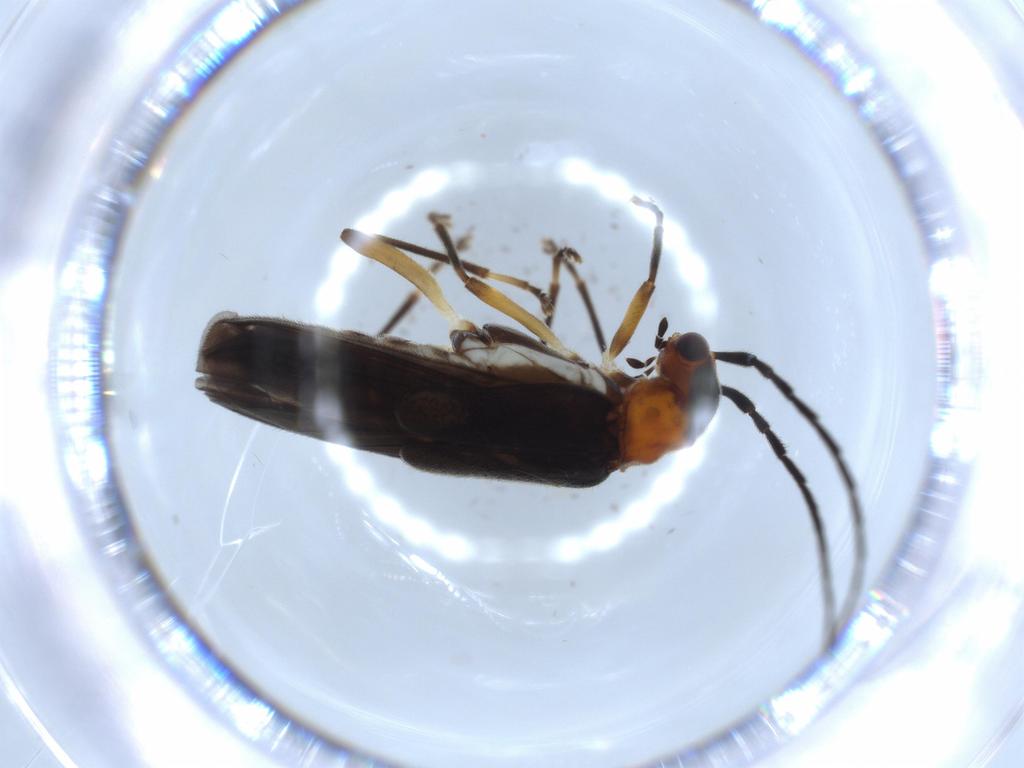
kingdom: Animalia
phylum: Arthropoda
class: Insecta
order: Coleoptera
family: Cantharidae
